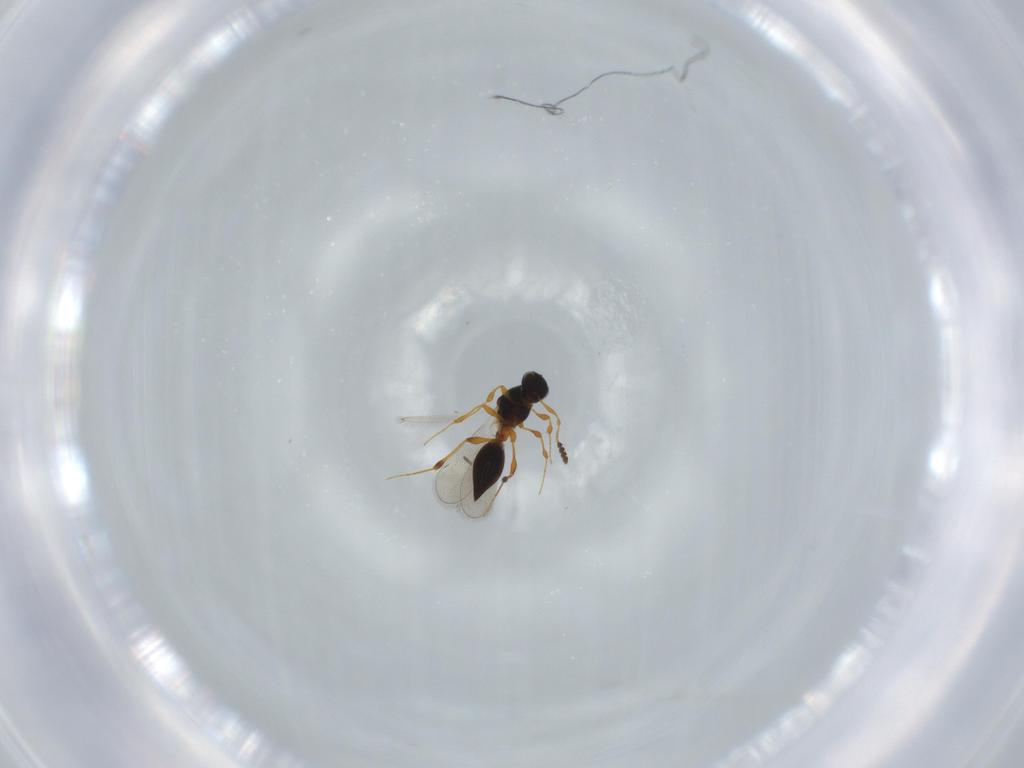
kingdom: Animalia
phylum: Arthropoda
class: Insecta
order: Hymenoptera
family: Platygastridae
